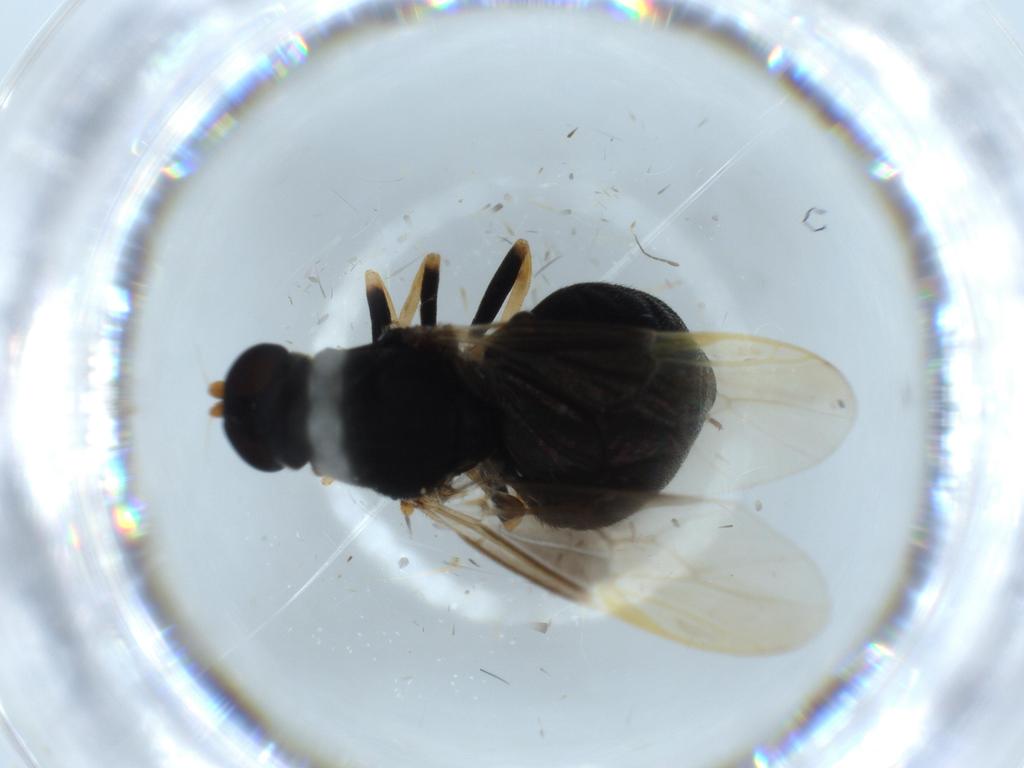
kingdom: Animalia
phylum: Arthropoda
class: Insecta
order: Diptera
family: Stratiomyidae
